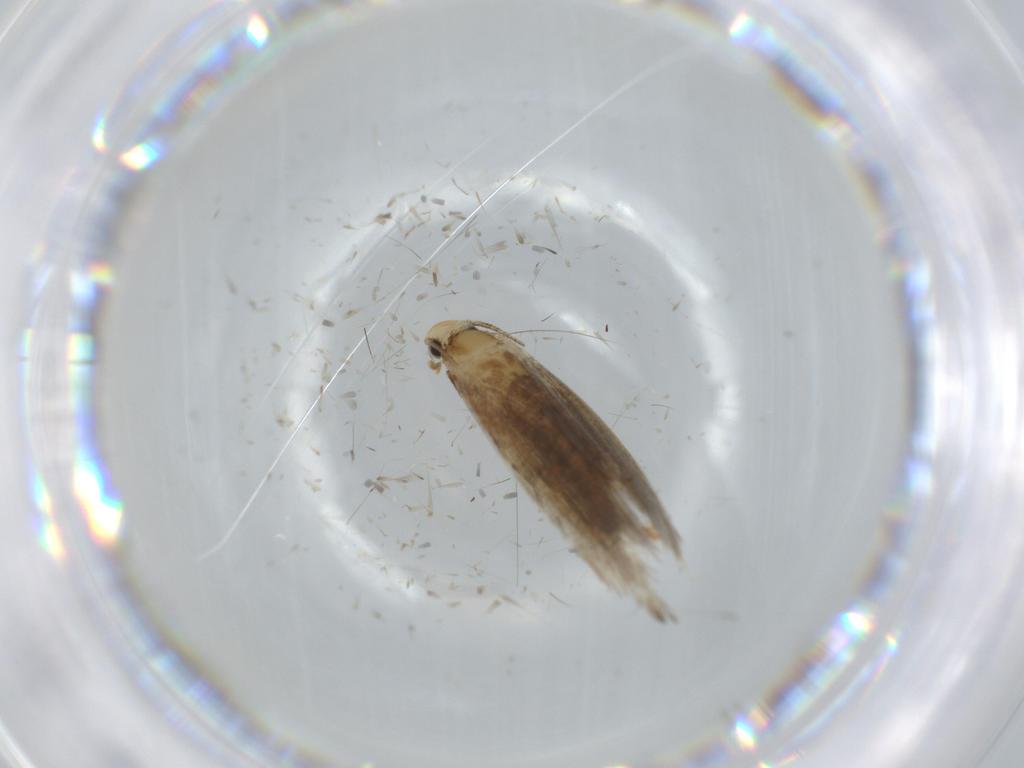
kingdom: Animalia
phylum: Arthropoda
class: Insecta
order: Lepidoptera
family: Tineidae
